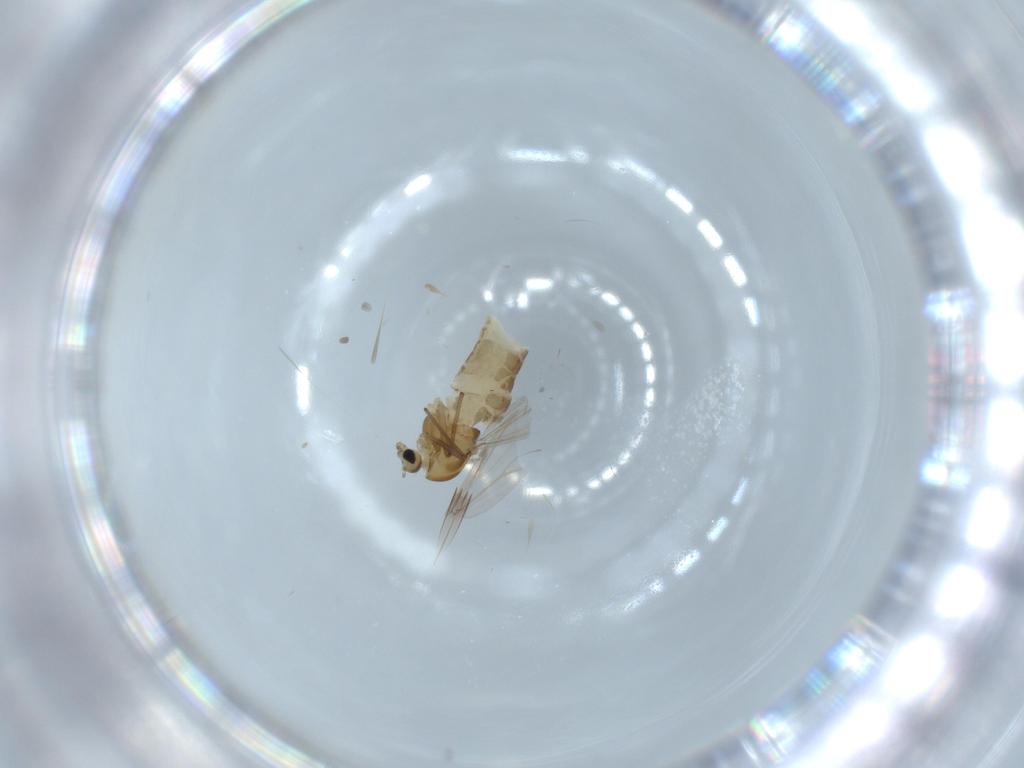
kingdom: Animalia
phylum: Arthropoda
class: Insecta
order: Diptera
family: Chironomidae
